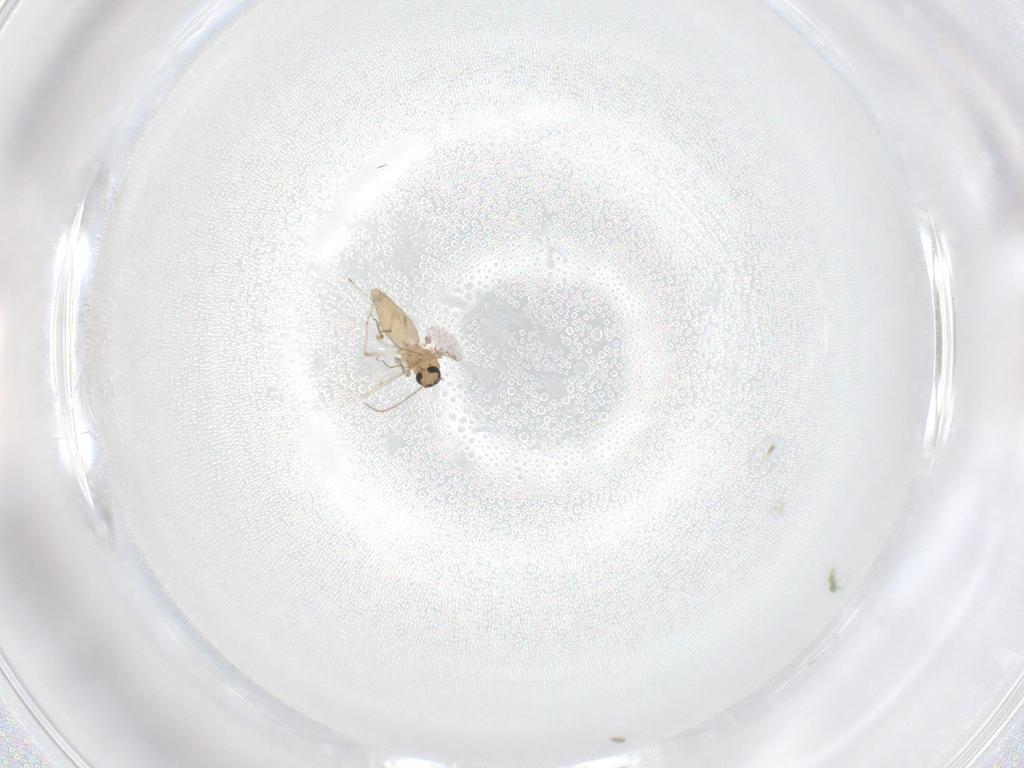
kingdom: Animalia
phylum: Arthropoda
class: Insecta
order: Diptera
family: Ceratopogonidae
